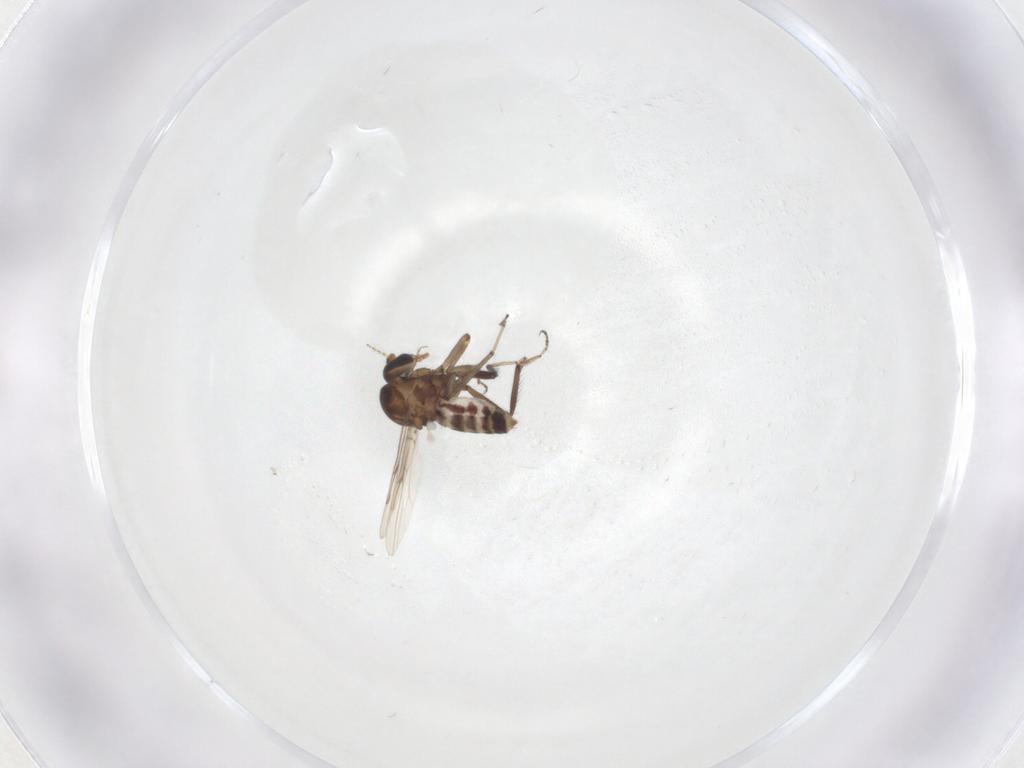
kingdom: Animalia
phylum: Arthropoda
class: Insecta
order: Diptera
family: Ceratopogonidae
